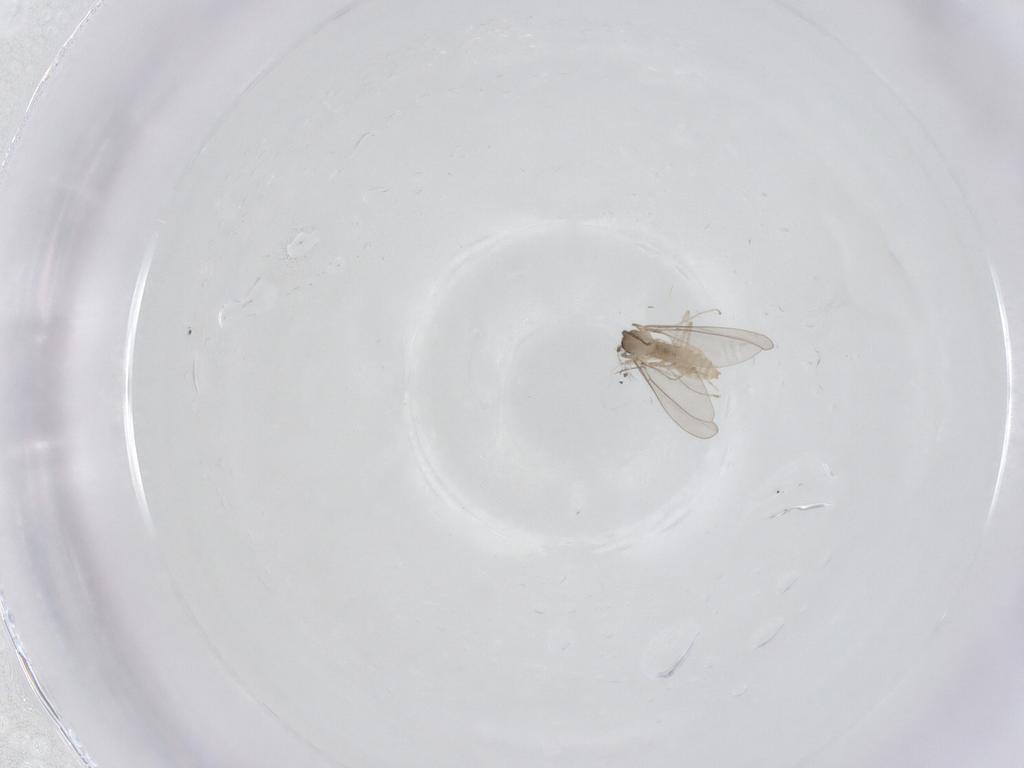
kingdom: Animalia
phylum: Arthropoda
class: Insecta
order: Diptera
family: Cecidomyiidae
